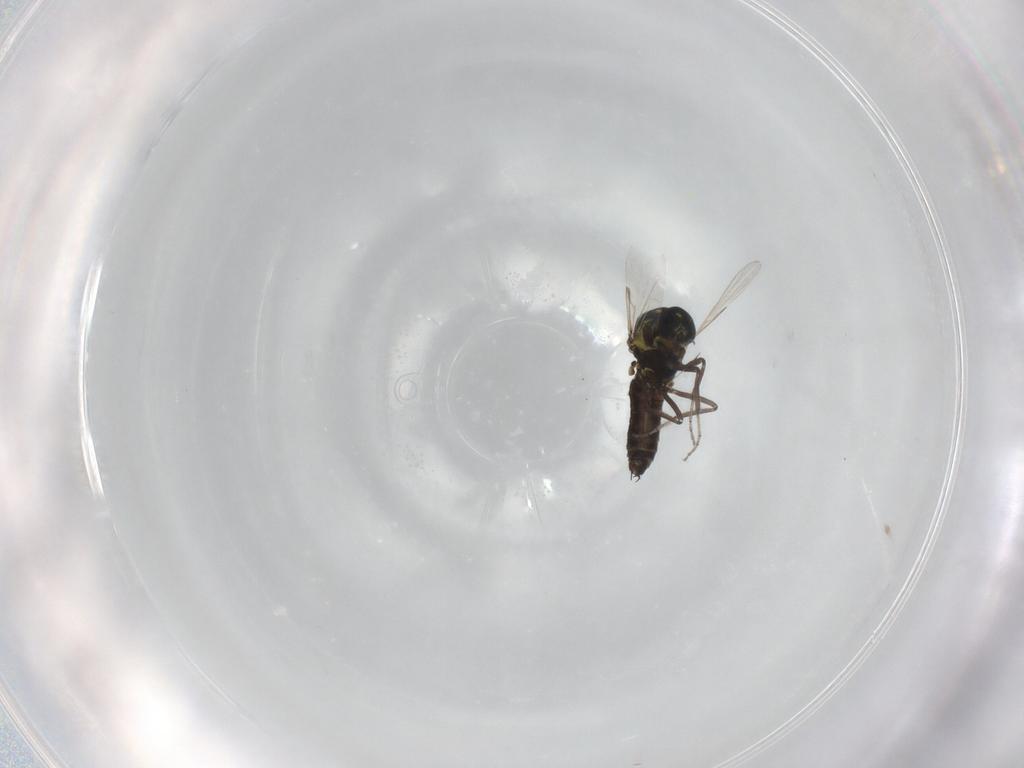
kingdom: Animalia
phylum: Arthropoda
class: Insecta
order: Diptera
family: Ceratopogonidae
